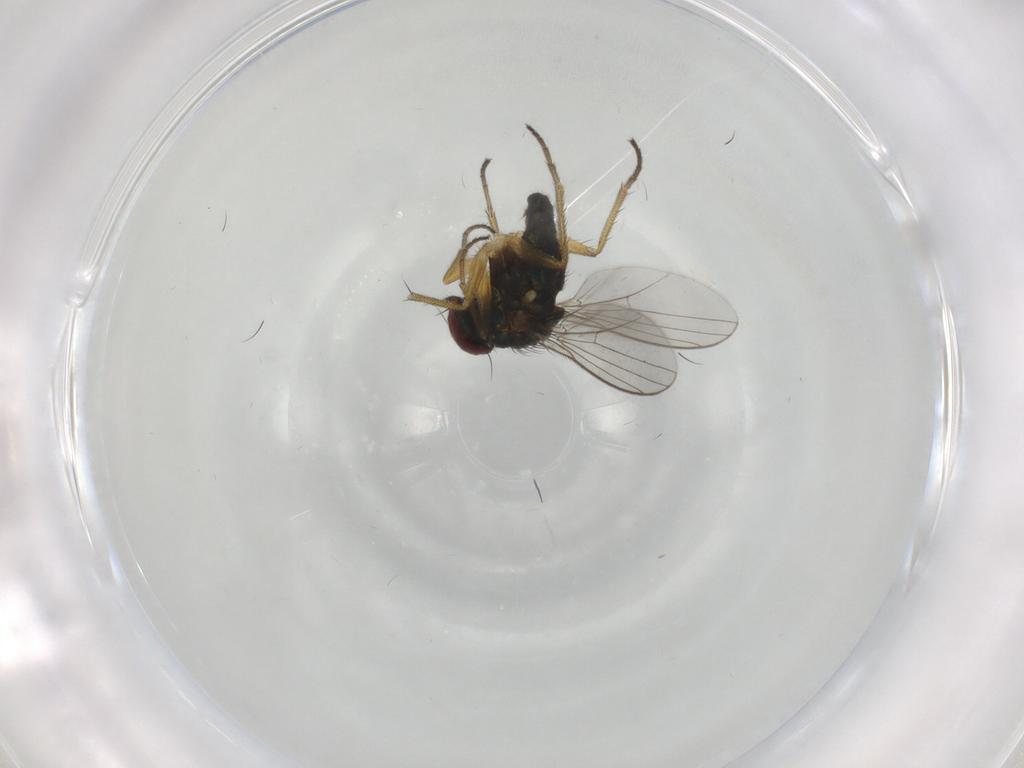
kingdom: Animalia
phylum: Arthropoda
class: Insecta
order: Diptera
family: Dolichopodidae
